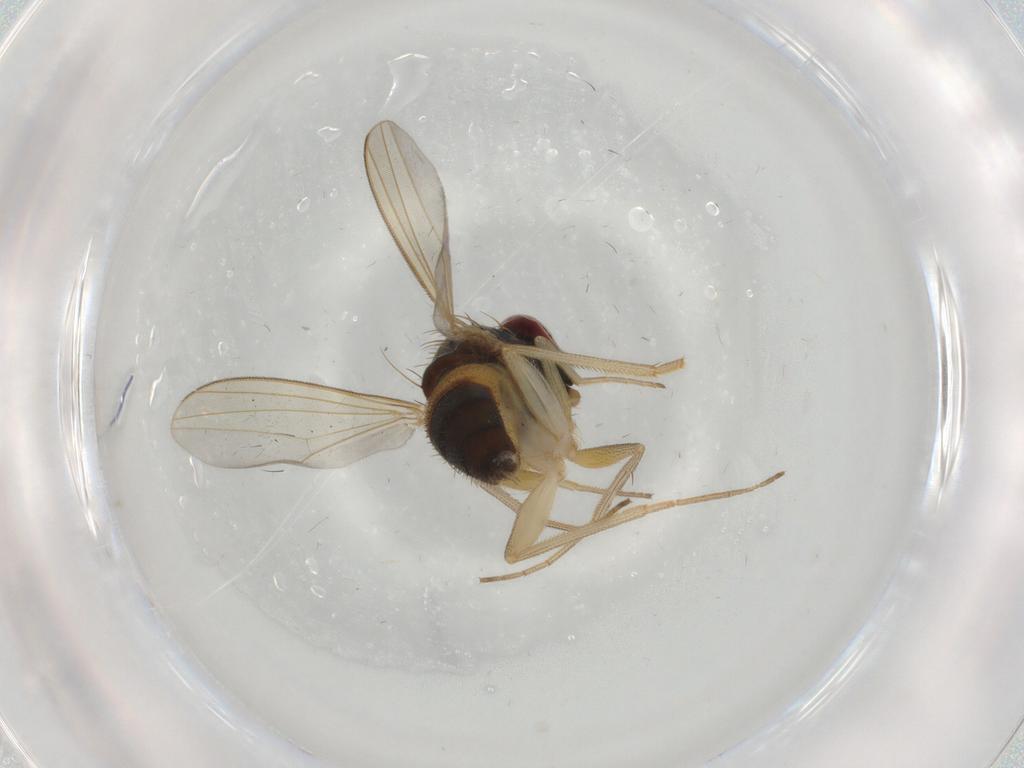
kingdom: Animalia
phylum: Arthropoda
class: Insecta
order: Diptera
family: Dolichopodidae
